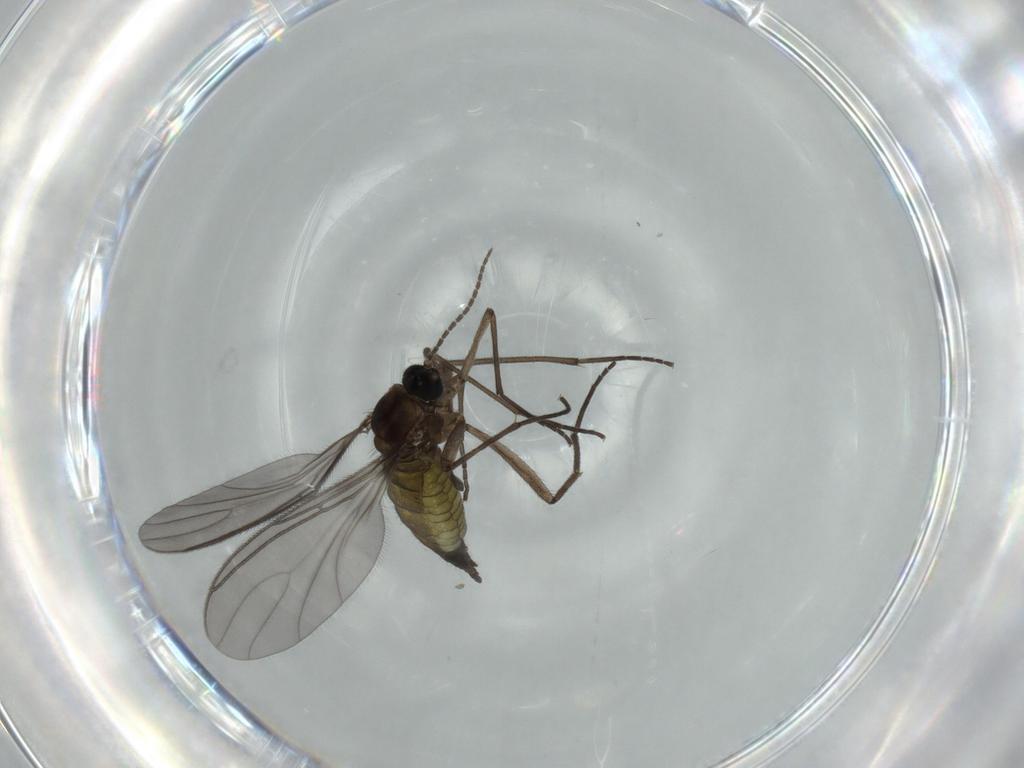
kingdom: Animalia
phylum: Arthropoda
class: Insecta
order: Diptera
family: Sciaridae
